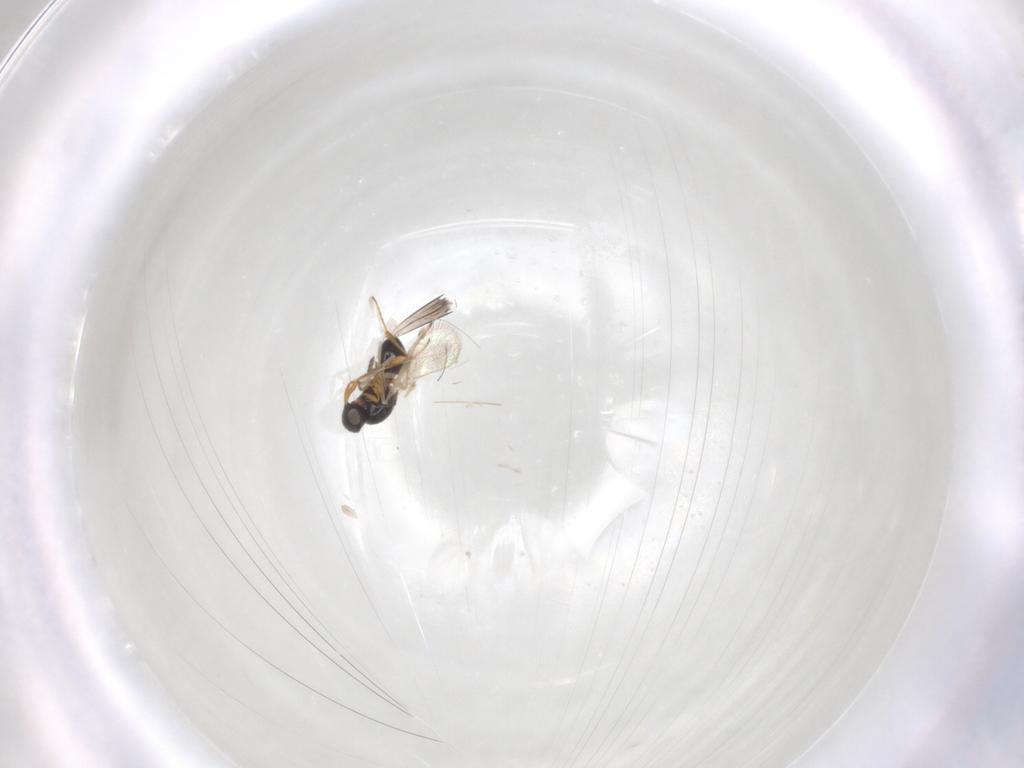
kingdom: Animalia
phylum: Arthropoda
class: Insecta
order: Hymenoptera
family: Platygastridae
